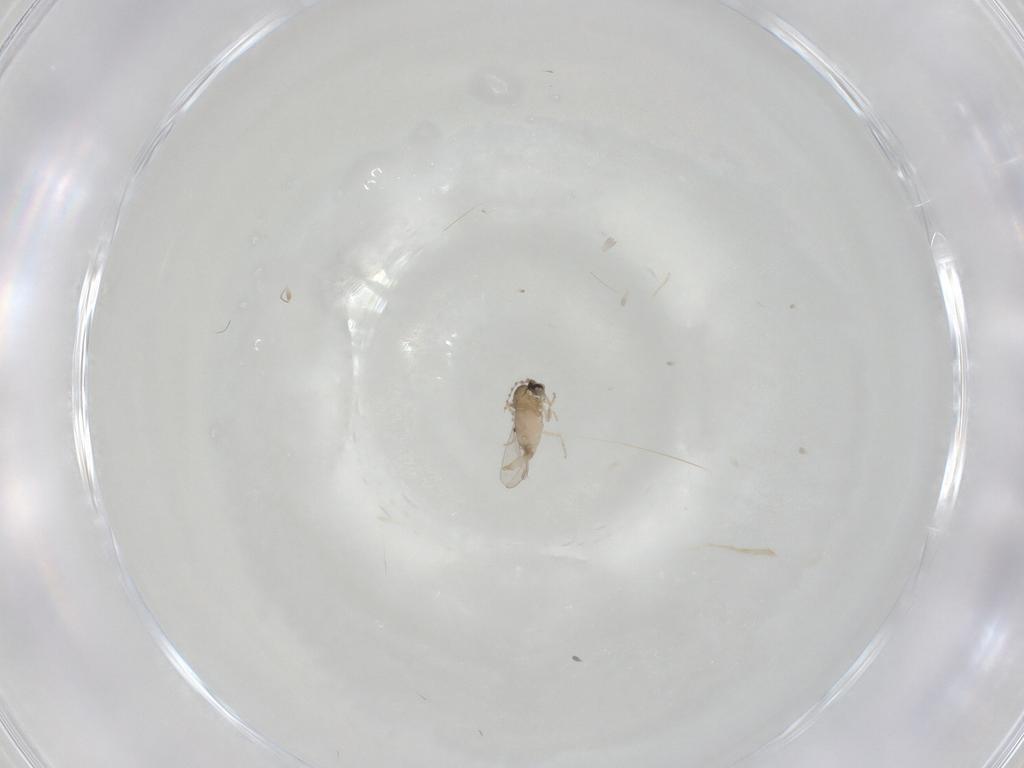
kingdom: Animalia
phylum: Arthropoda
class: Insecta
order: Diptera
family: Cecidomyiidae
